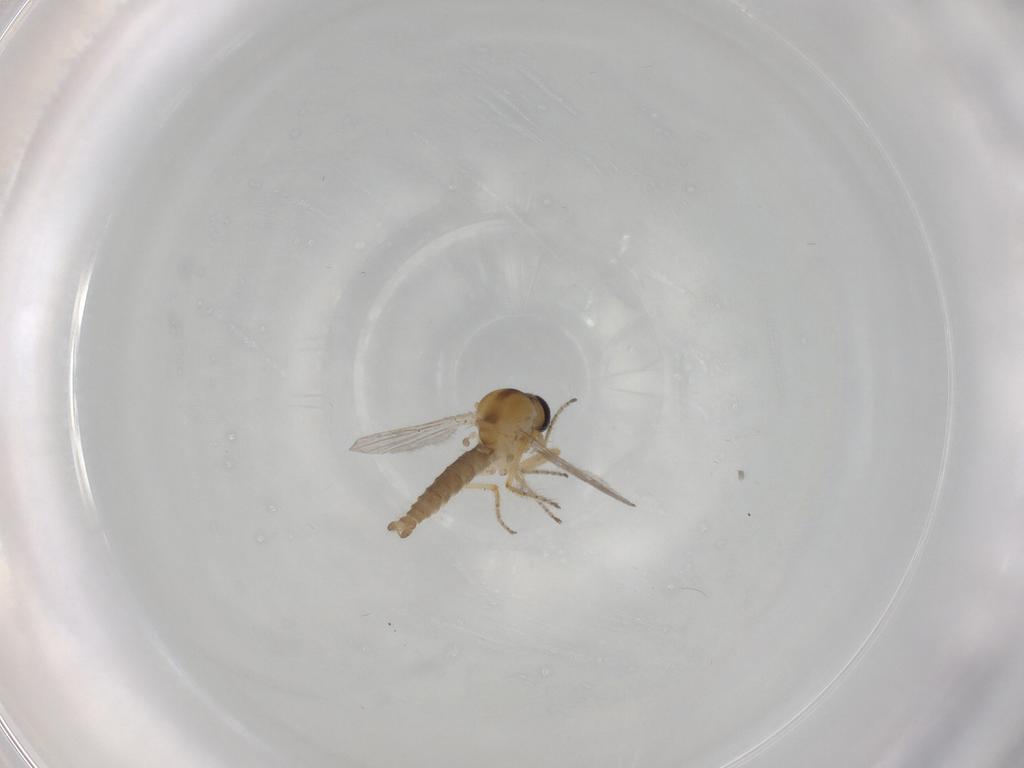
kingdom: Animalia
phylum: Arthropoda
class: Insecta
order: Diptera
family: Ceratopogonidae
